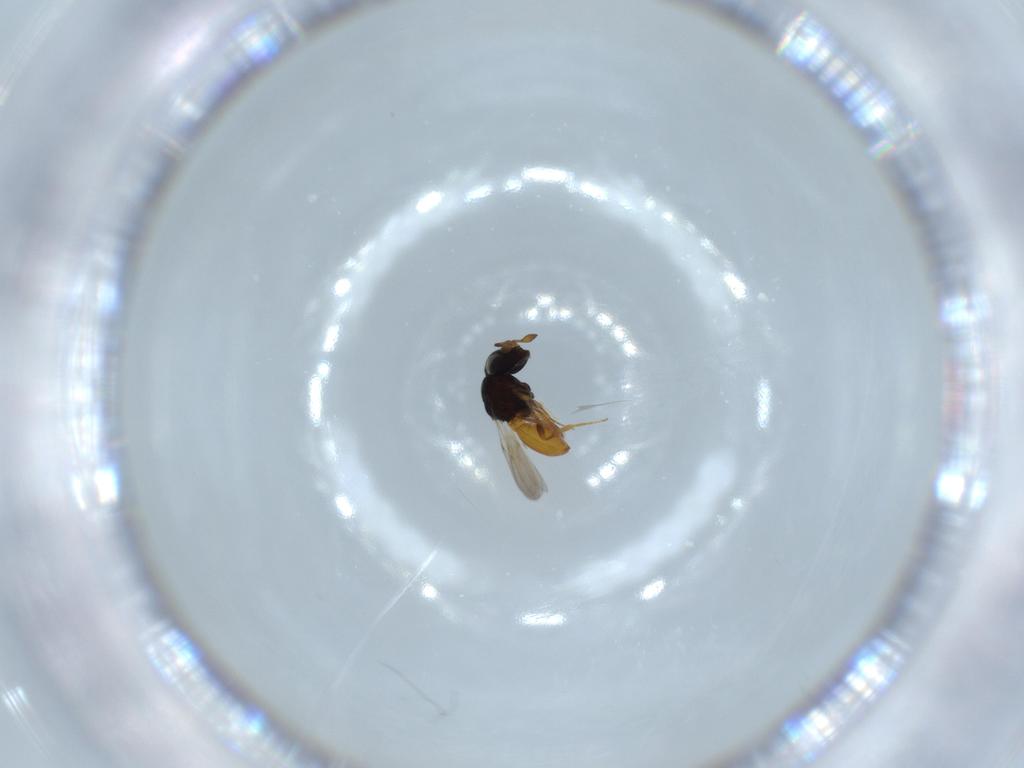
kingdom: Animalia
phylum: Arthropoda
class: Insecta
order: Hymenoptera
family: Scelionidae
